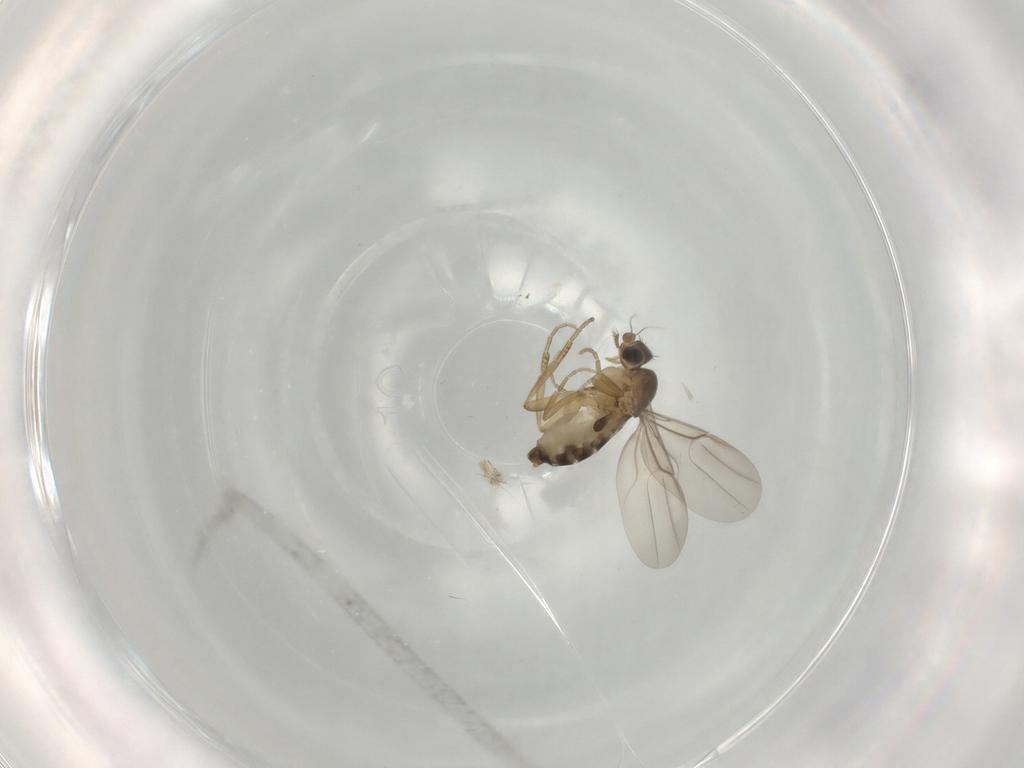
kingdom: Animalia
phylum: Arthropoda
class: Insecta
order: Diptera
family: Phoridae
